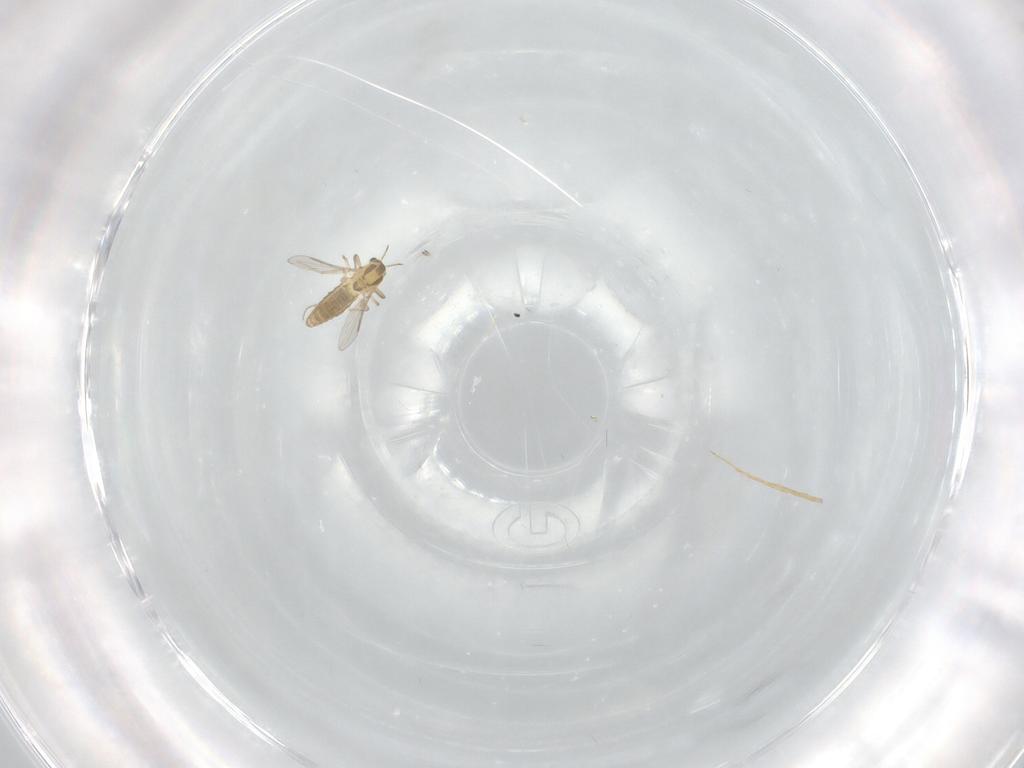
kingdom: Animalia
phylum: Arthropoda
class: Insecta
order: Diptera
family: Chironomidae
